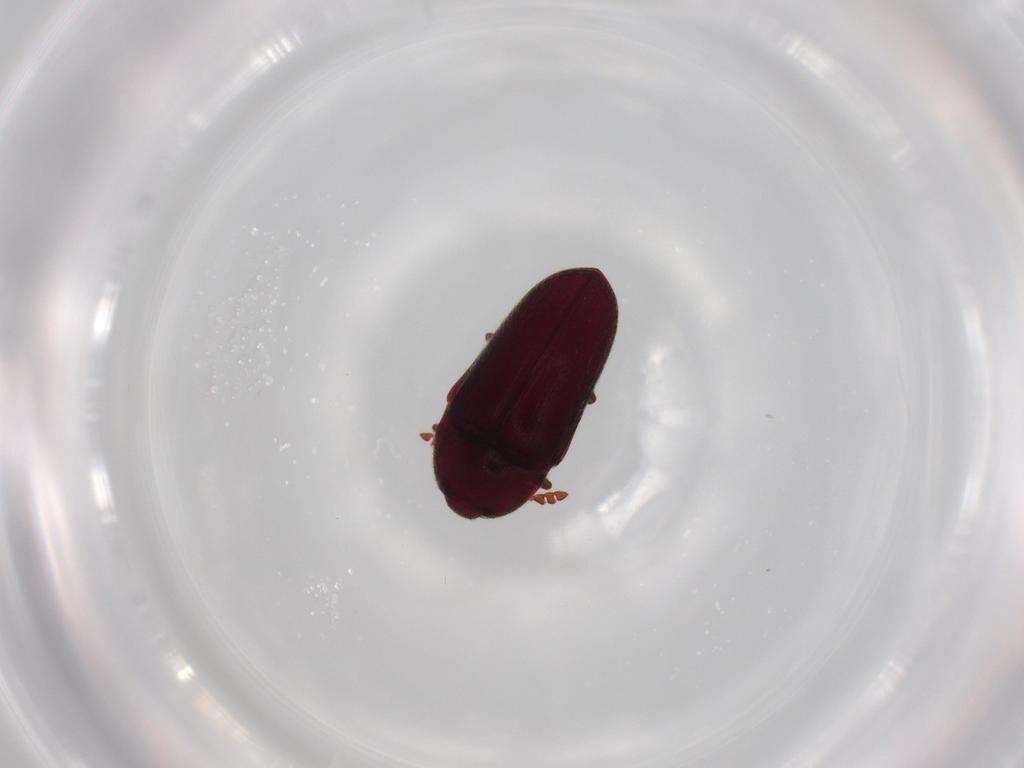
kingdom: Animalia
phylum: Arthropoda
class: Insecta
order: Coleoptera
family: Throscidae
